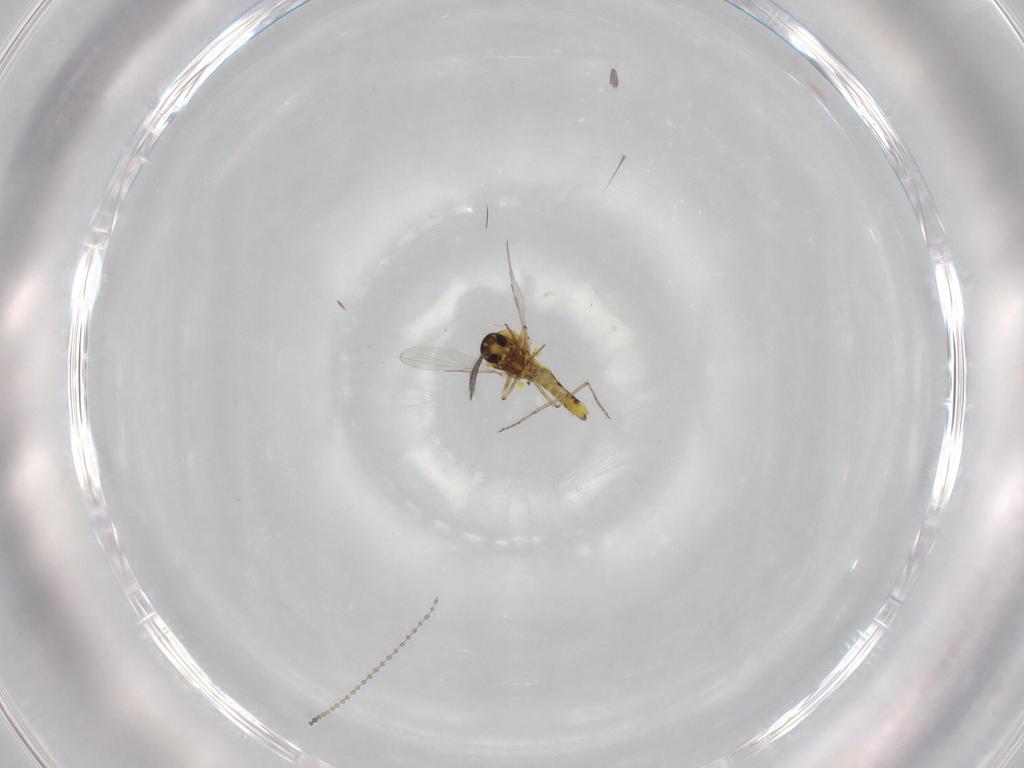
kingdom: Animalia
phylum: Arthropoda
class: Insecta
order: Diptera
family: Ceratopogonidae
